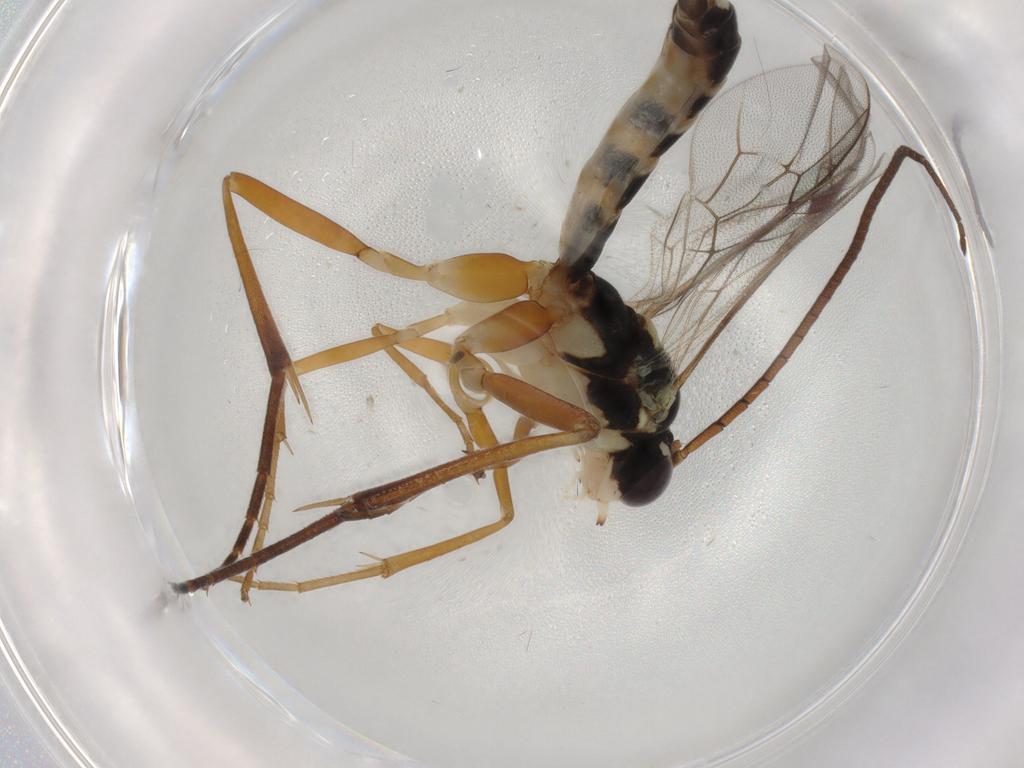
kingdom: Animalia
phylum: Arthropoda
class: Insecta
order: Hymenoptera
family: Ichneumonidae
